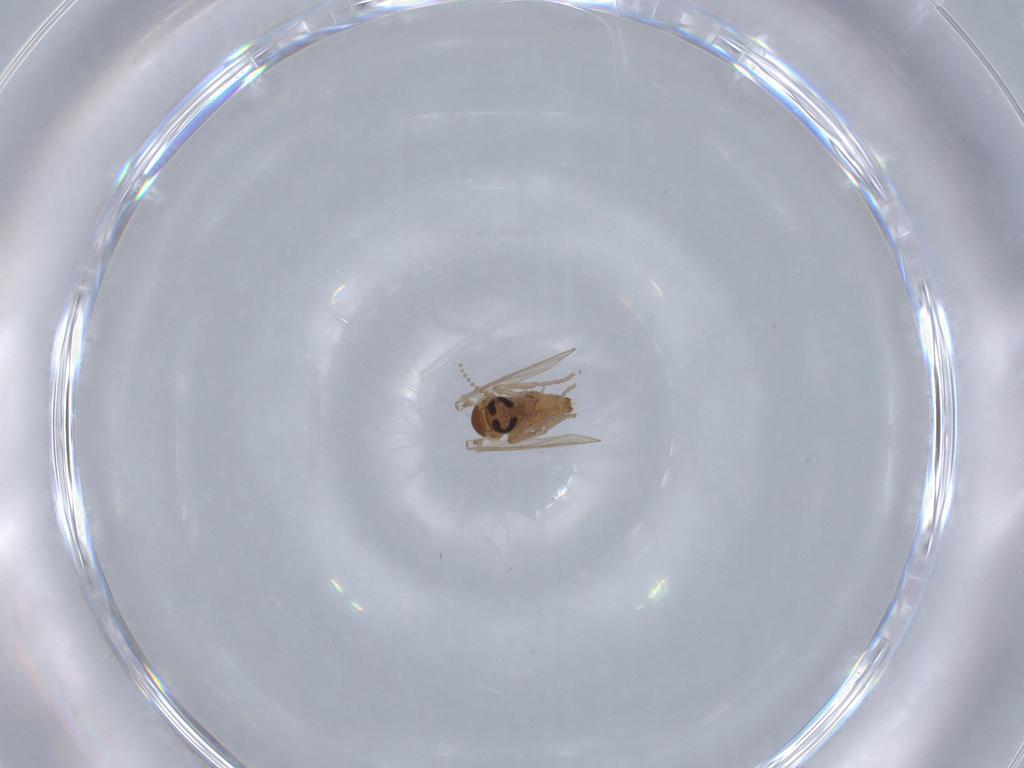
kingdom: Animalia
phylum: Arthropoda
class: Insecta
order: Diptera
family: Psychodidae
